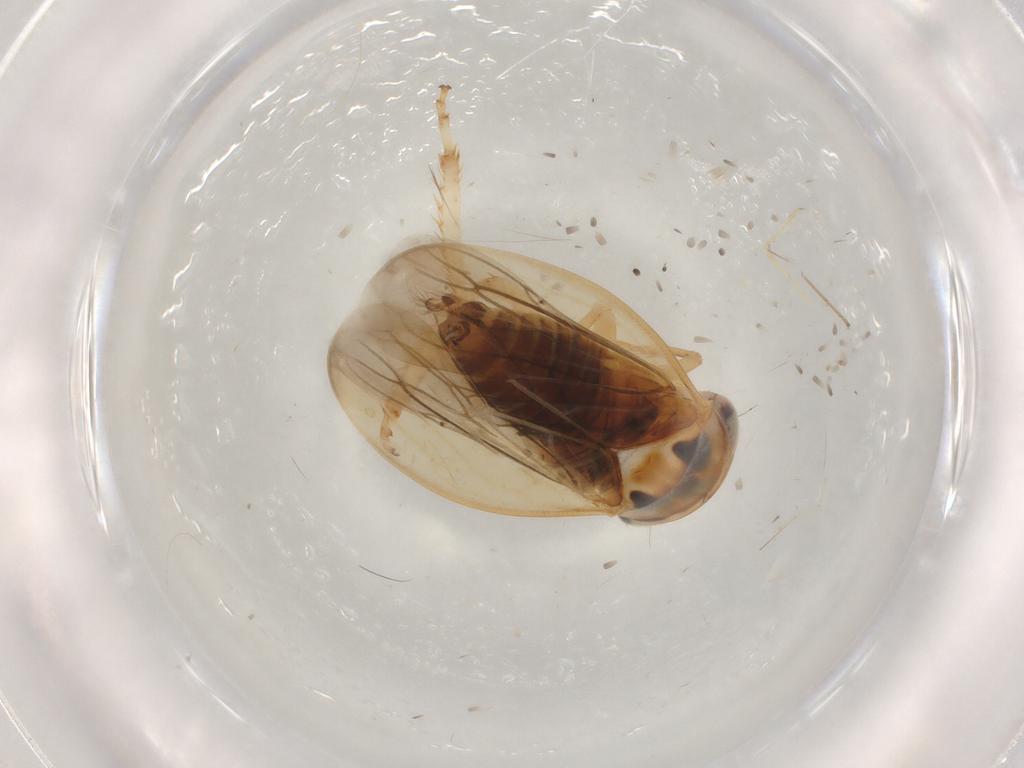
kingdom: Animalia
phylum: Arthropoda
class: Insecta
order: Hemiptera
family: Cicadellidae
